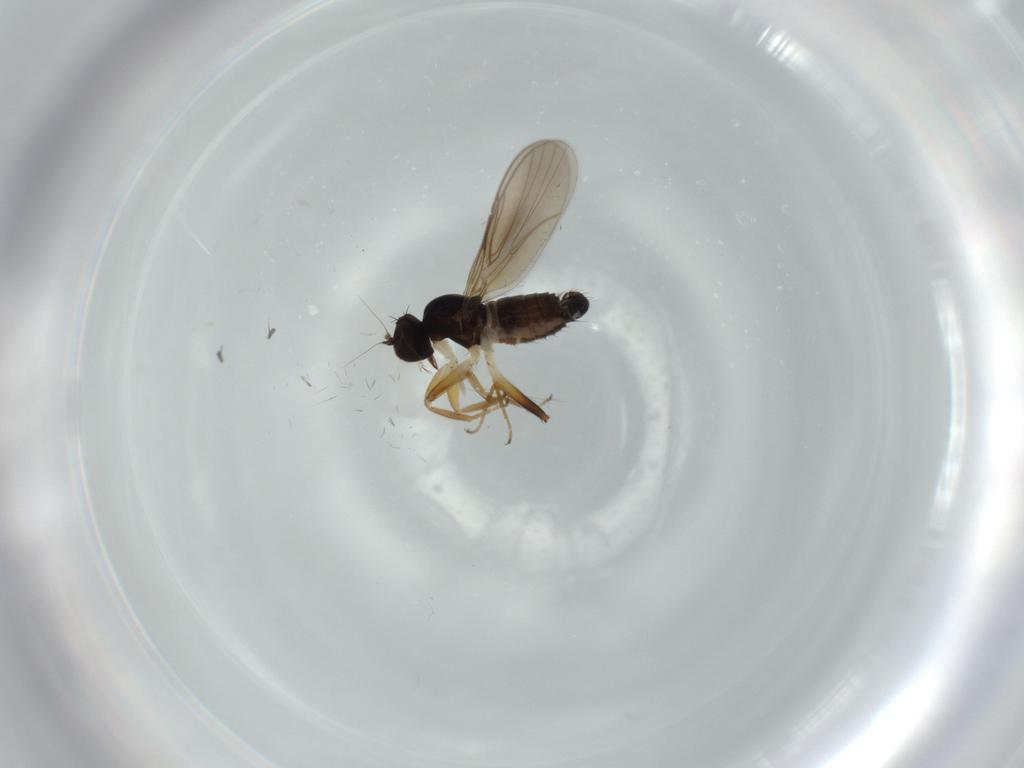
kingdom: Animalia
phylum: Arthropoda
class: Insecta
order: Diptera
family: Hybotidae
